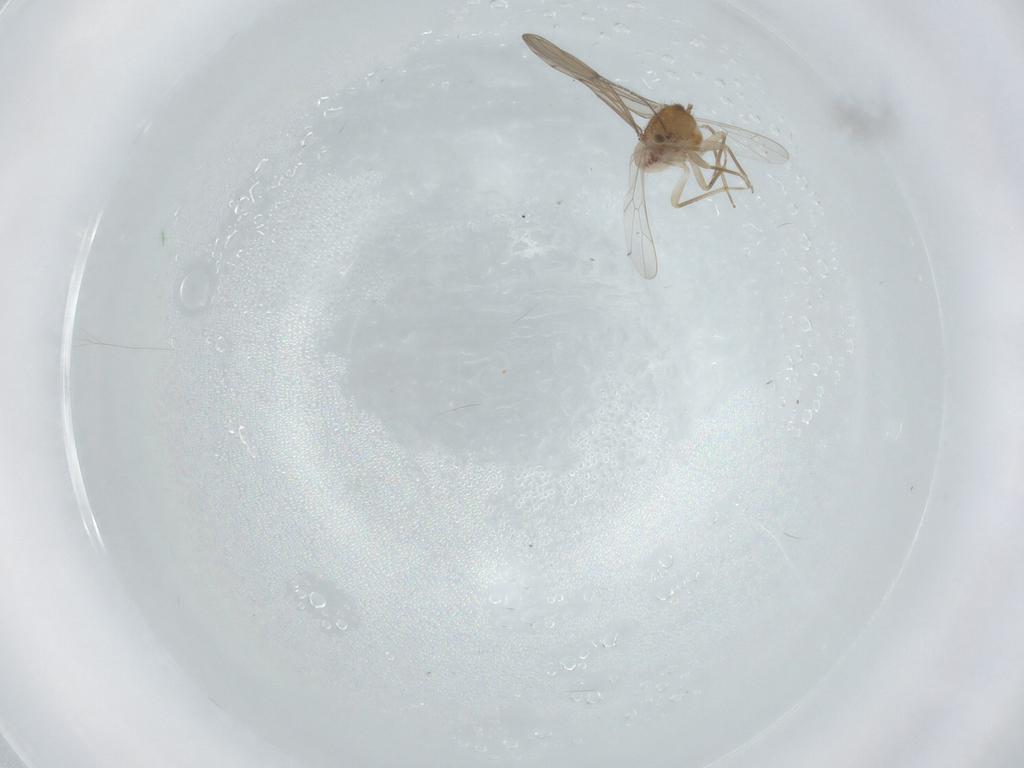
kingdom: Animalia
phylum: Arthropoda
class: Insecta
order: Psocodea
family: Ectopsocidae
